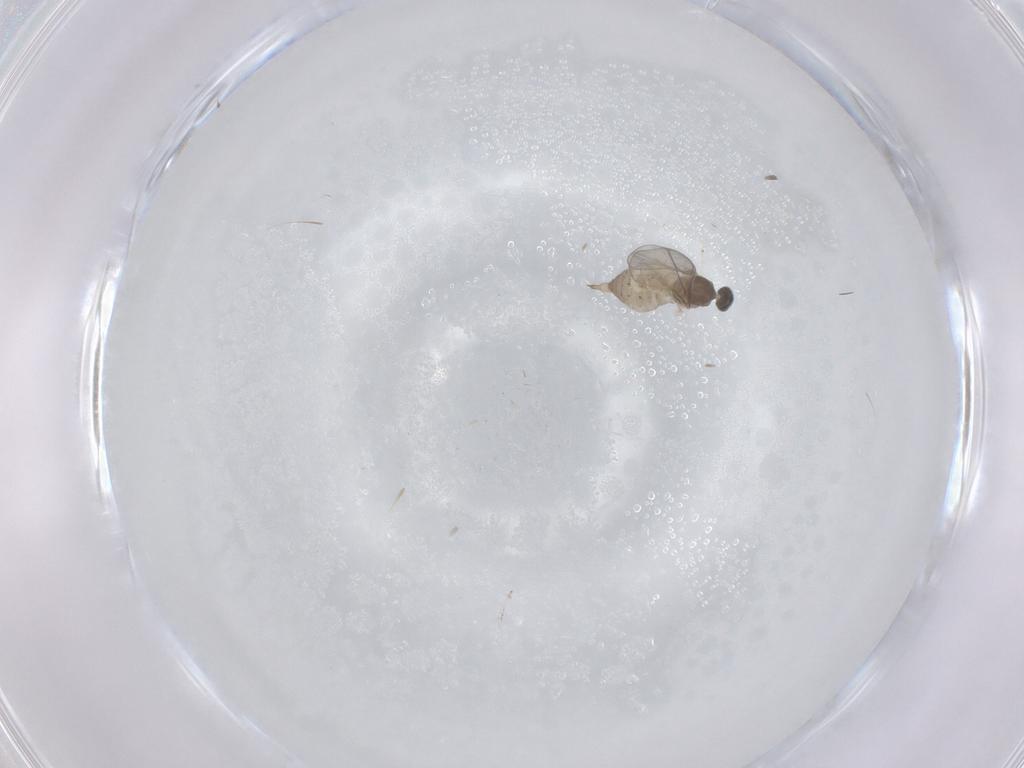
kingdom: Animalia
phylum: Arthropoda
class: Insecta
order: Diptera
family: Cecidomyiidae
